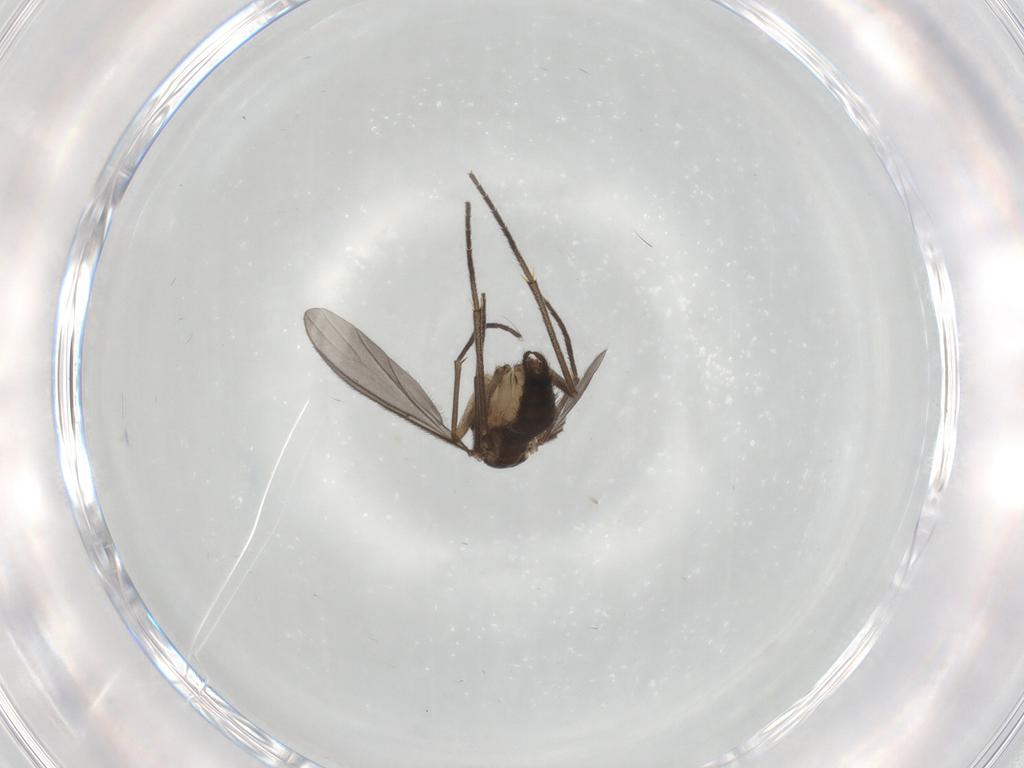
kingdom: Animalia
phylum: Arthropoda
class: Insecta
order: Diptera
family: Sciaridae
